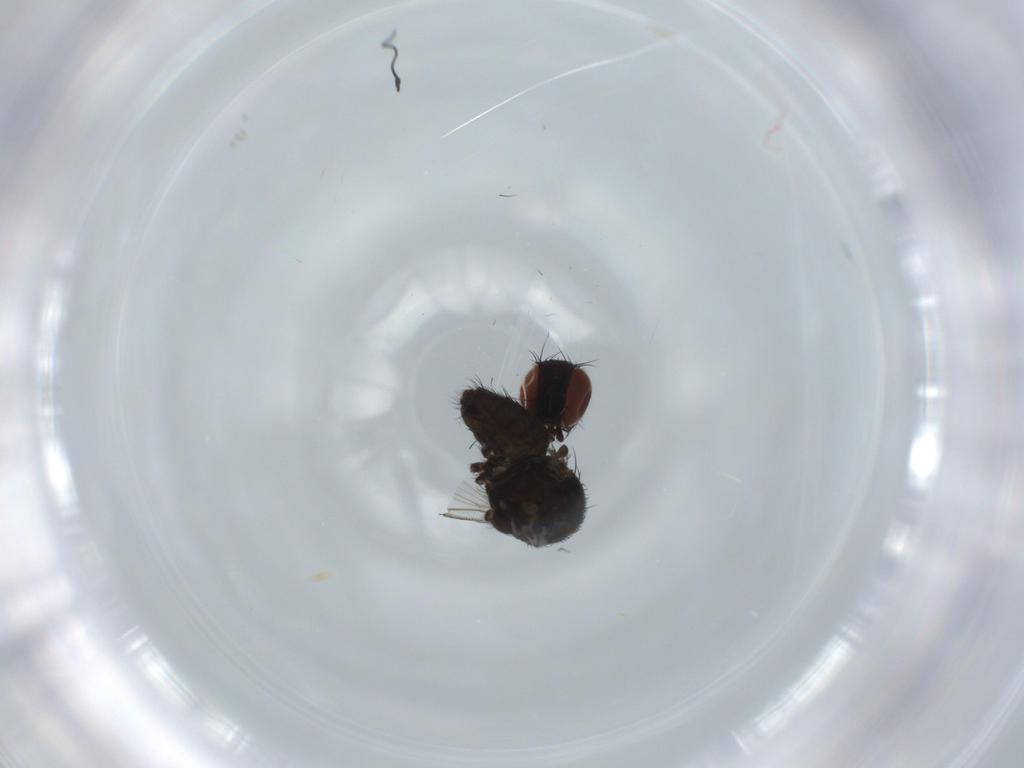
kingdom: Animalia
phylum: Arthropoda
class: Insecta
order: Diptera
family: Milichiidae
